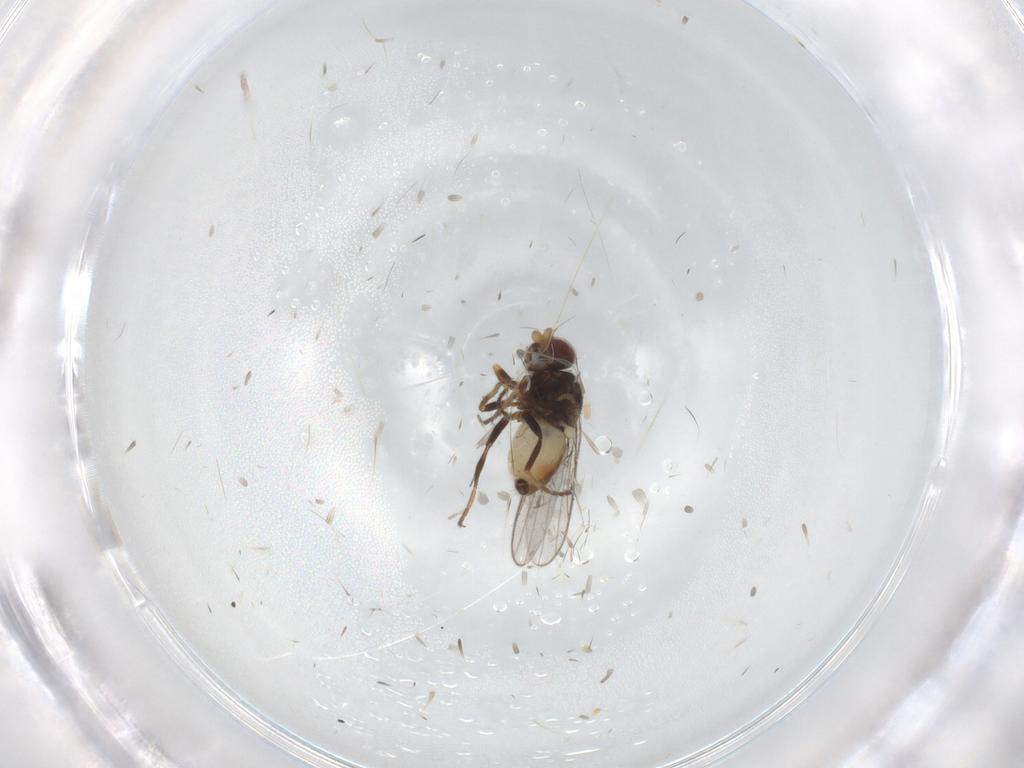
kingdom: Animalia
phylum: Arthropoda
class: Insecta
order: Diptera
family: Chloropidae
